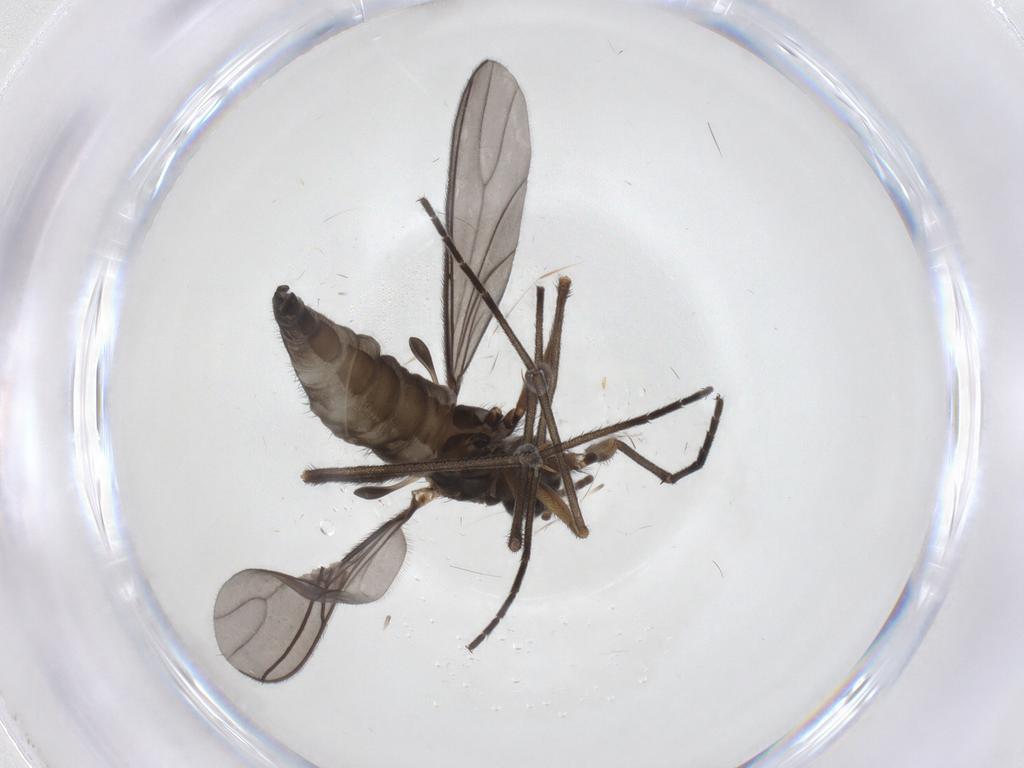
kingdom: Animalia
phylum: Arthropoda
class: Insecta
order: Diptera
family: Sciaridae
